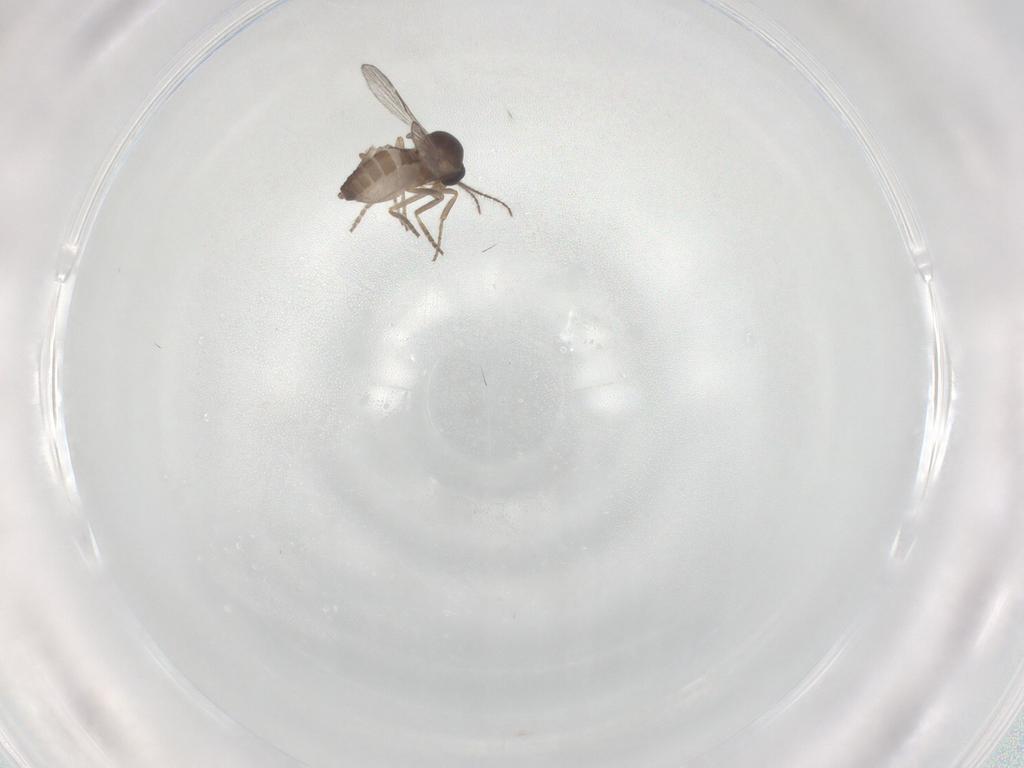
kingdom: Animalia
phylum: Arthropoda
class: Insecta
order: Diptera
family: Ceratopogonidae
